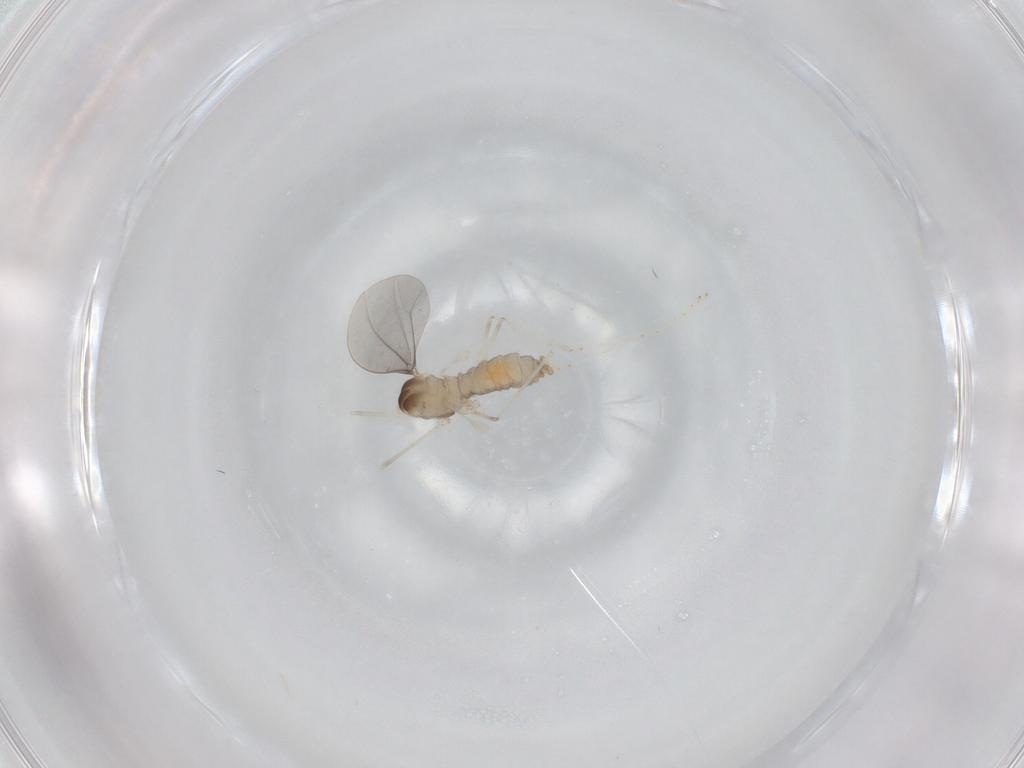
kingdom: Animalia
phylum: Arthropoda
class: Insecta
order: Diptera
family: Cecidomyiidae
